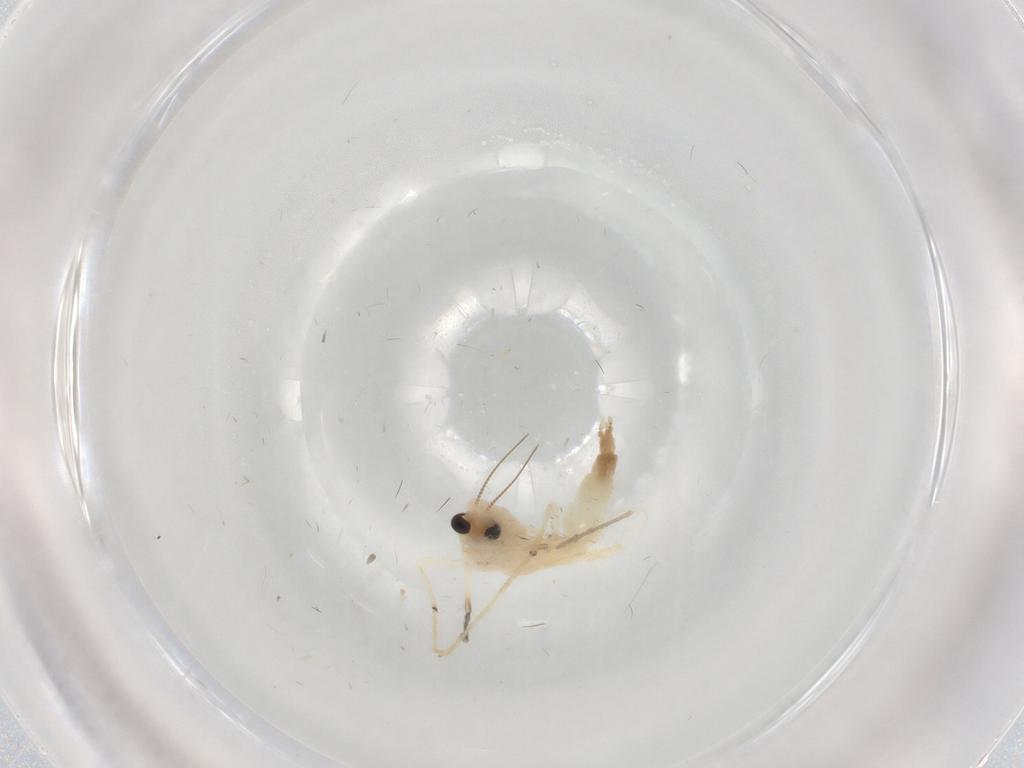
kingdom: Animalia
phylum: Arthropoda
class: Insecta
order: Diptera
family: Chironomidae
